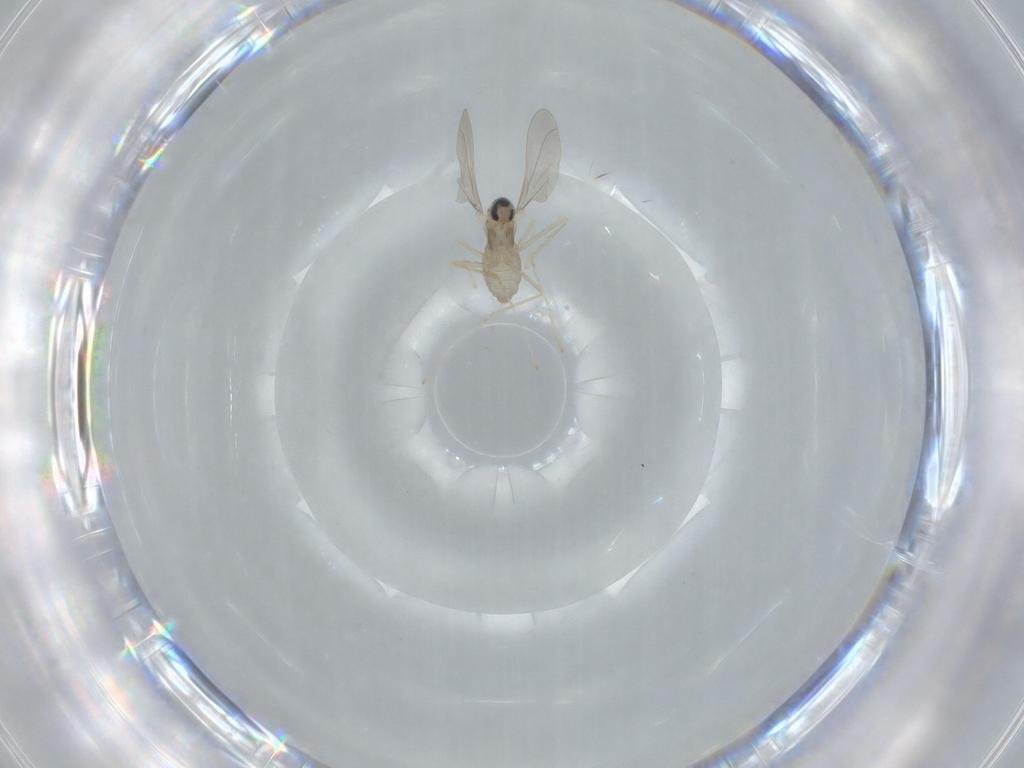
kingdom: Animalia
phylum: Arthropoda
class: Insecta
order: Diptera
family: Cecidomyiidae
